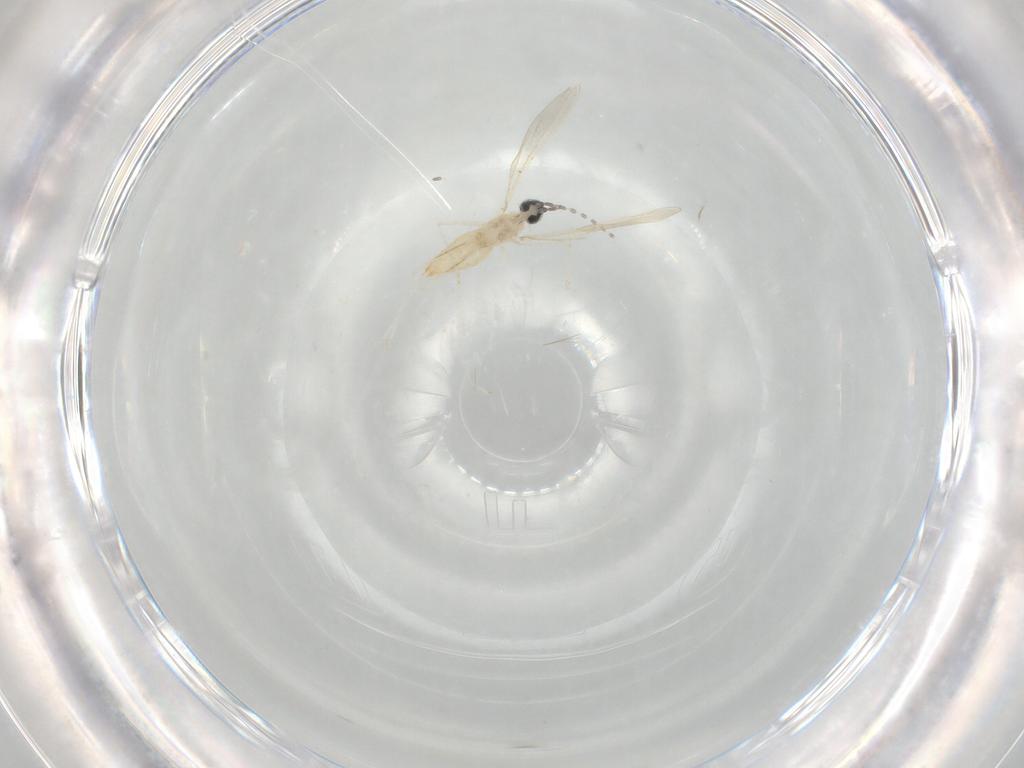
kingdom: Animalia
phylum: Arthropoda
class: Insecta
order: Diptera
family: Cecidomyiidae
